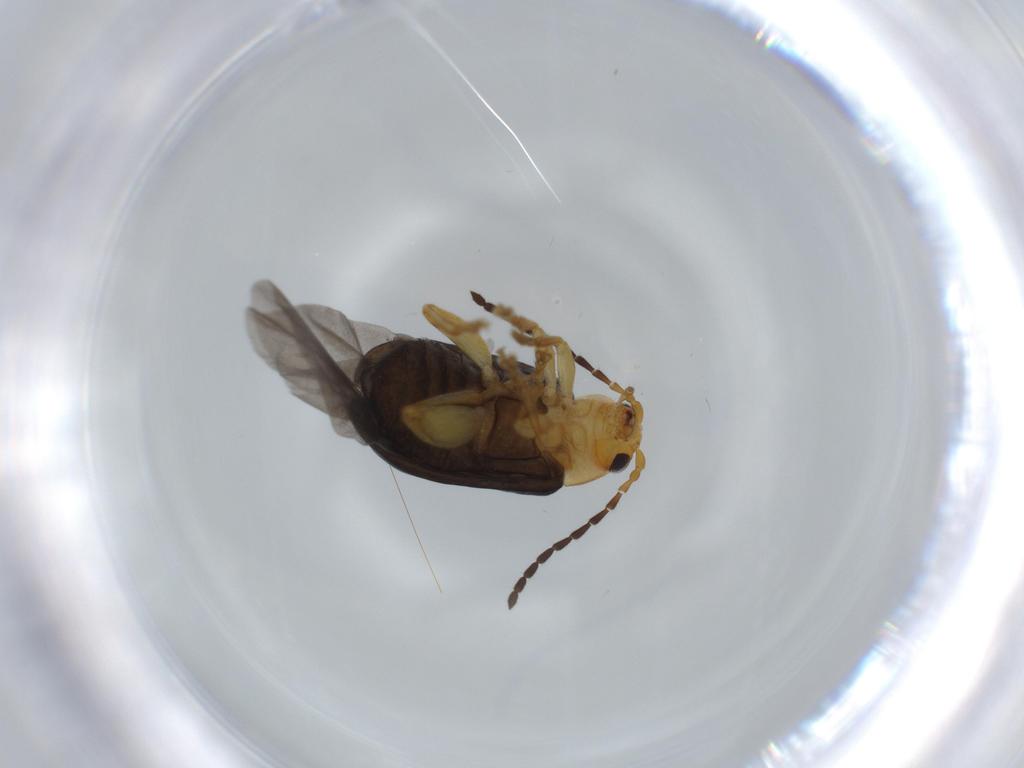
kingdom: Animalia
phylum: Arthropoda
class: Insecta
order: Coleoptera
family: Chrysomelidae
